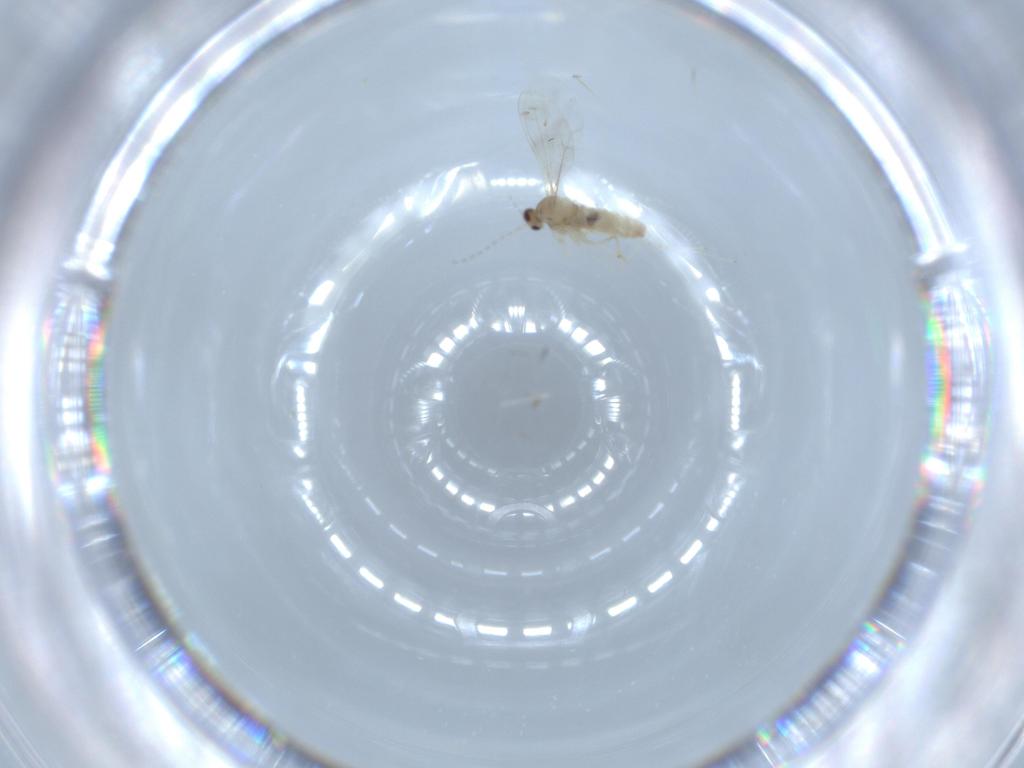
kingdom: Animalia
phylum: Arthropoda
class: Insecta
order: Diptera
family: Cecidomyiidae
